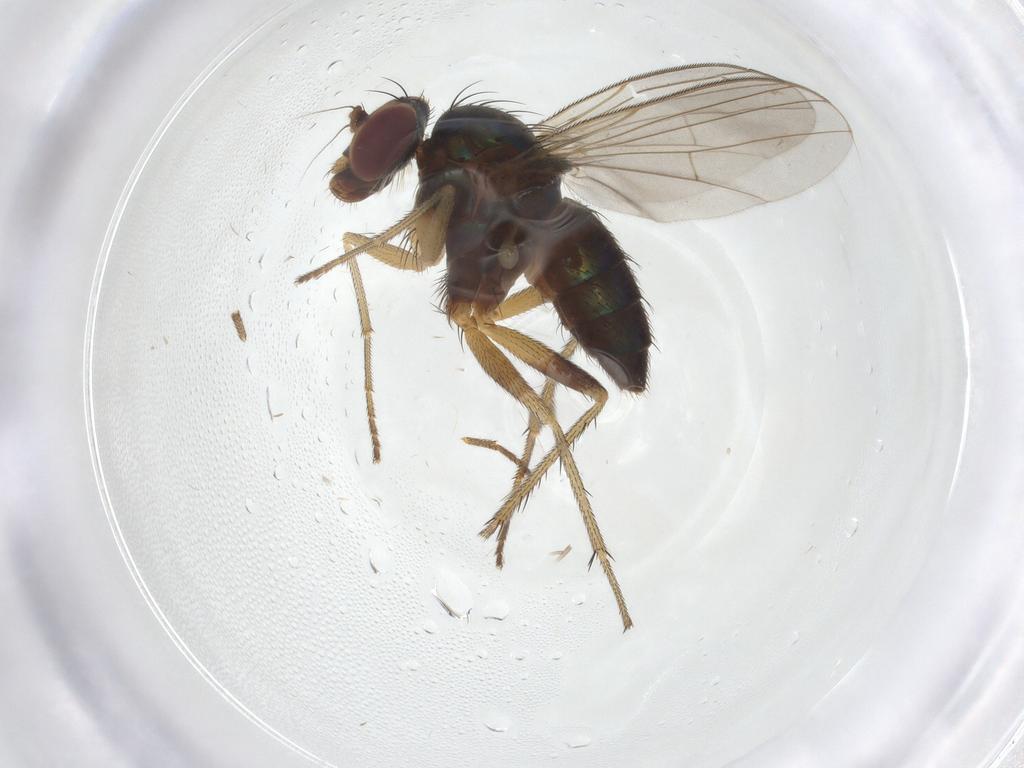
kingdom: Animalia
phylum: Arthropoda
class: Insecta
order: Diptera
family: Dolichopodidae
